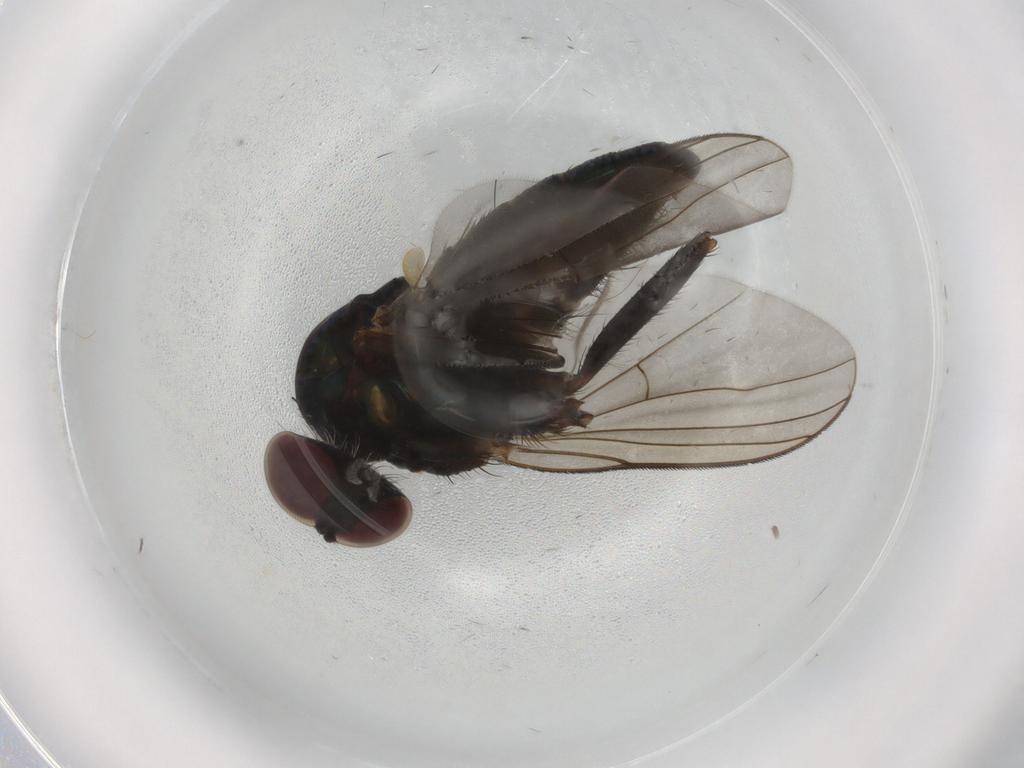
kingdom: Animalia
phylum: Arthropoda
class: Insecta
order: Diptera
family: Dolichopodidae
